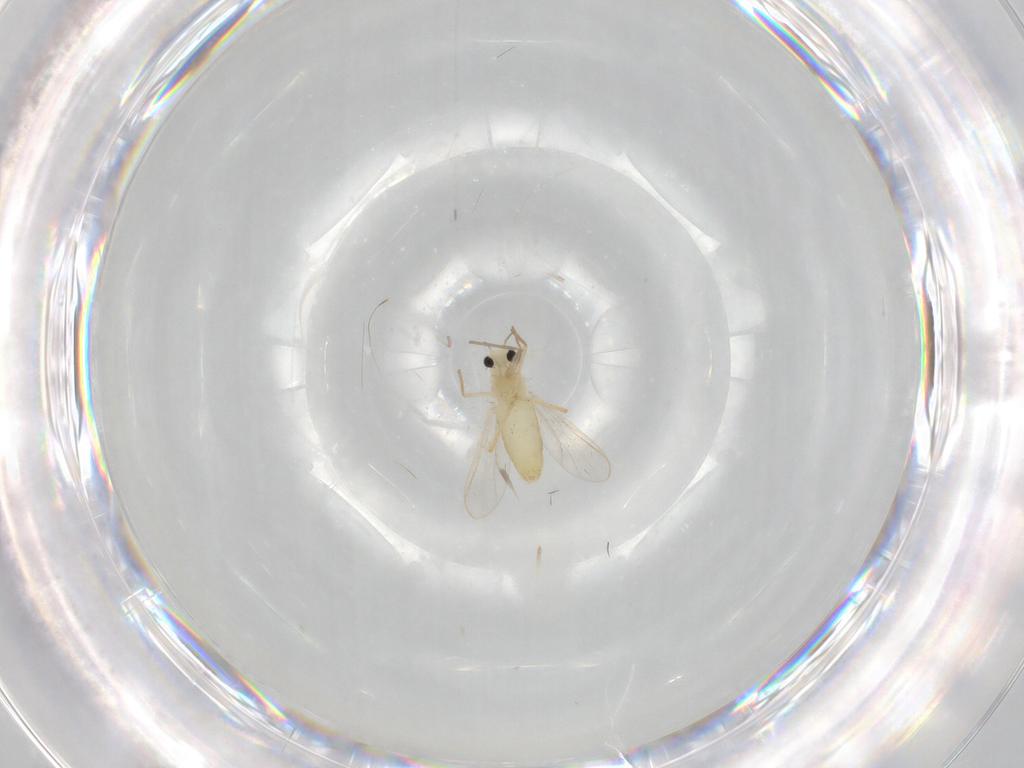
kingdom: Animalia
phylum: Arthropoda
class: Insecta
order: Diptera
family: Chironomidae
